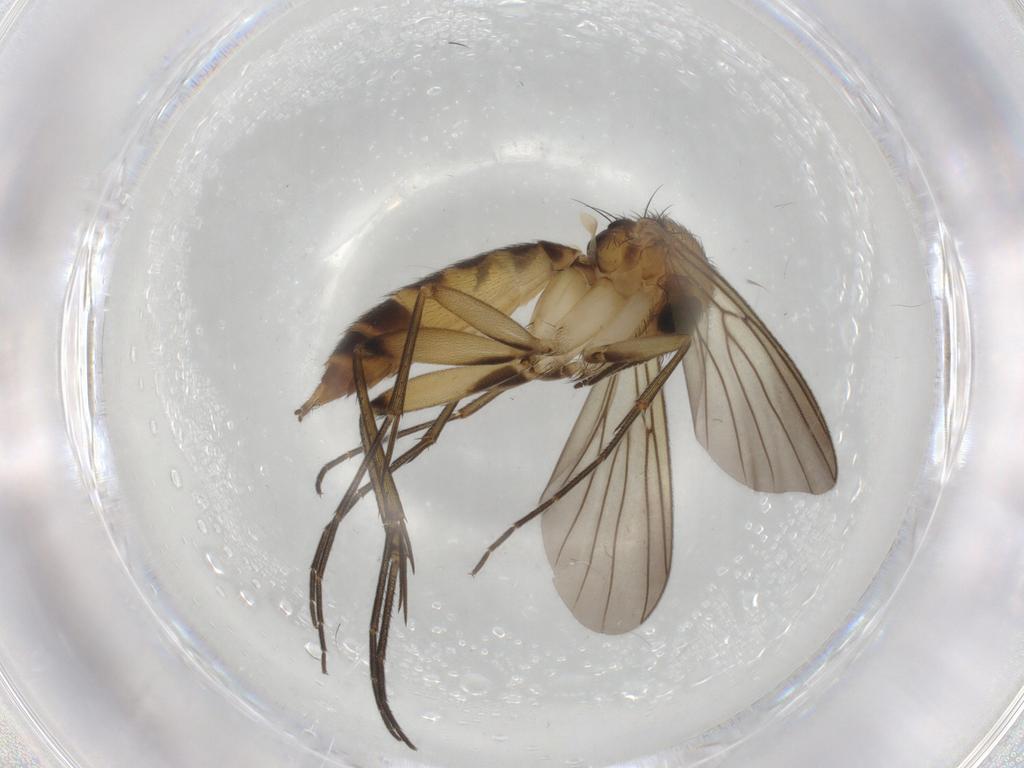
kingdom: Animalia
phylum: Arthropoda
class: Insecta
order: Diptera
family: Mycetophilidae
